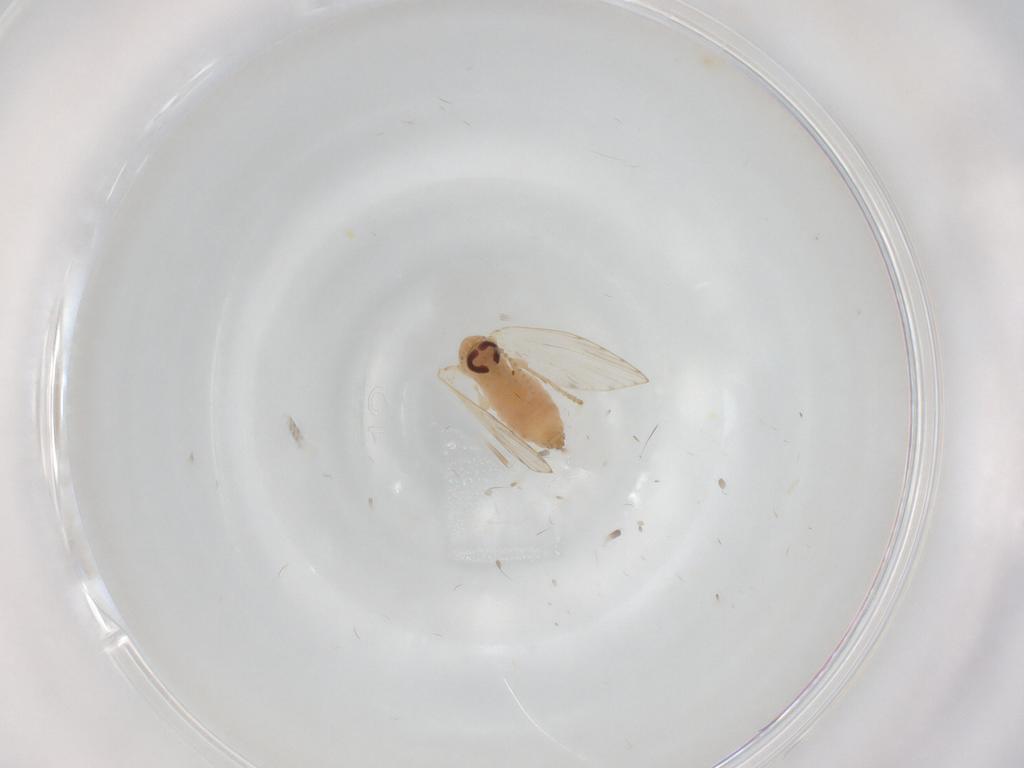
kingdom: Animalia
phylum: Arthropoda
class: Insecta
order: Diptera
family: Psychodidae
